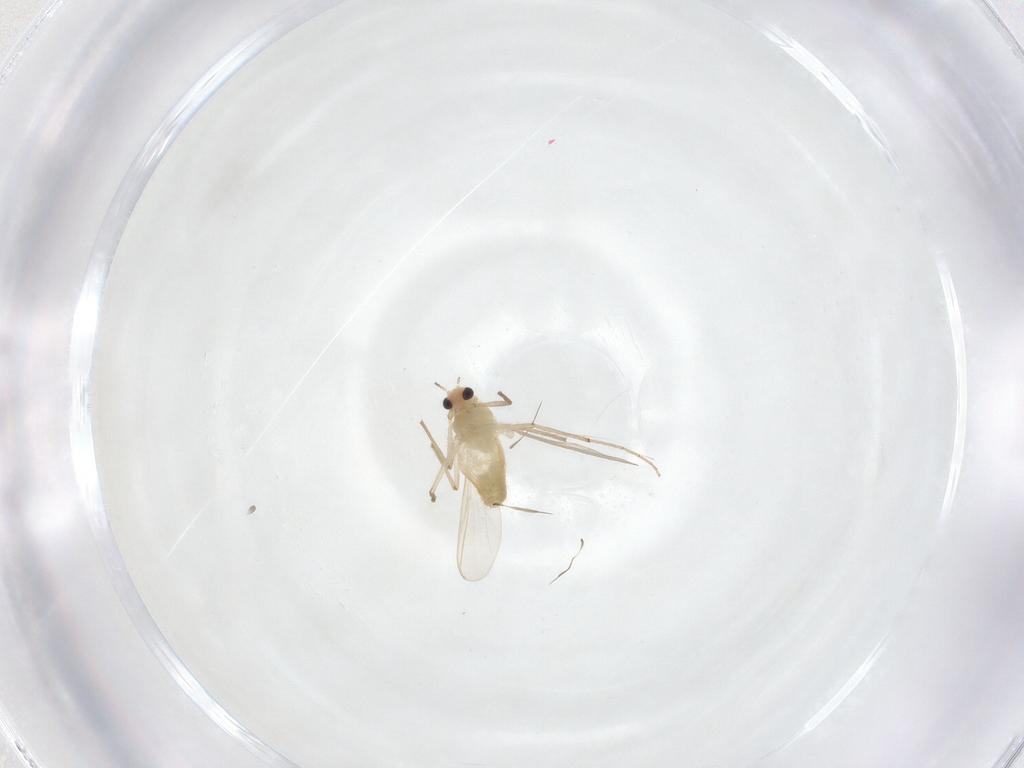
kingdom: Animalia
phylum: Arthropoda
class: Insecta
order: Diptera
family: Chironomidae
